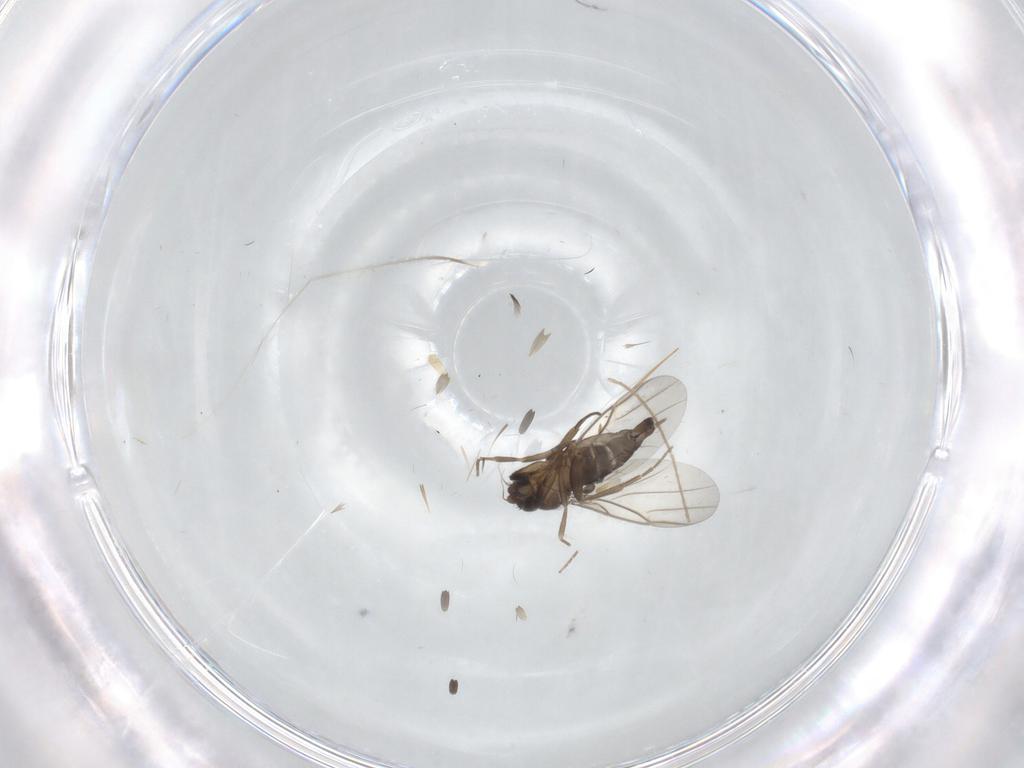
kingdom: Animalia
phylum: Arthropoda
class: Insecta
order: Diptera
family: Phoridae
